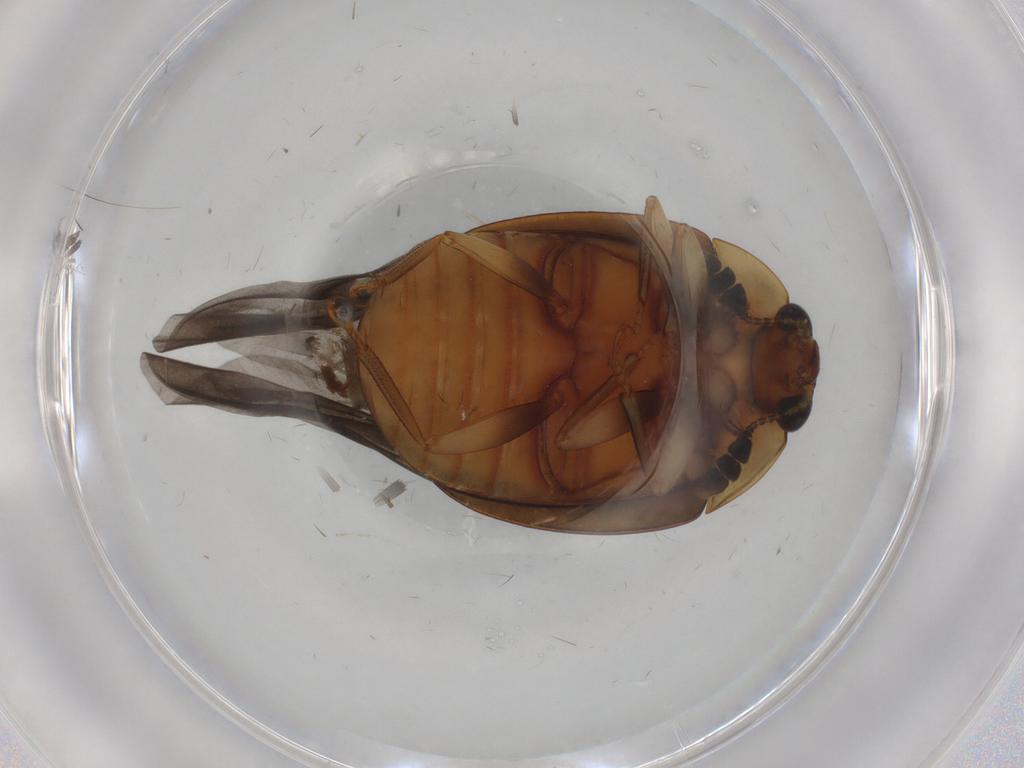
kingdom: Animalia
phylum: Arthropoda
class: Insecta
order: Coleoptera
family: Nitidulidae
